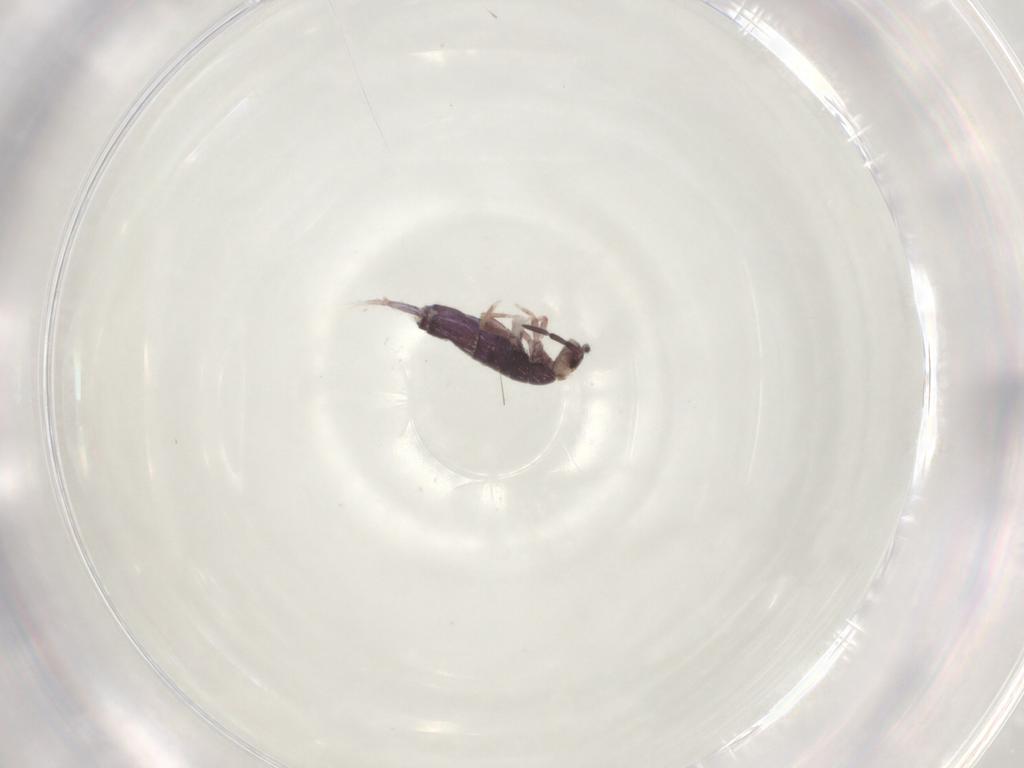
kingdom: Animalia
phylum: Arthropoda
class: Collembola
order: Entomobryomorpha
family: Entomobryidae
